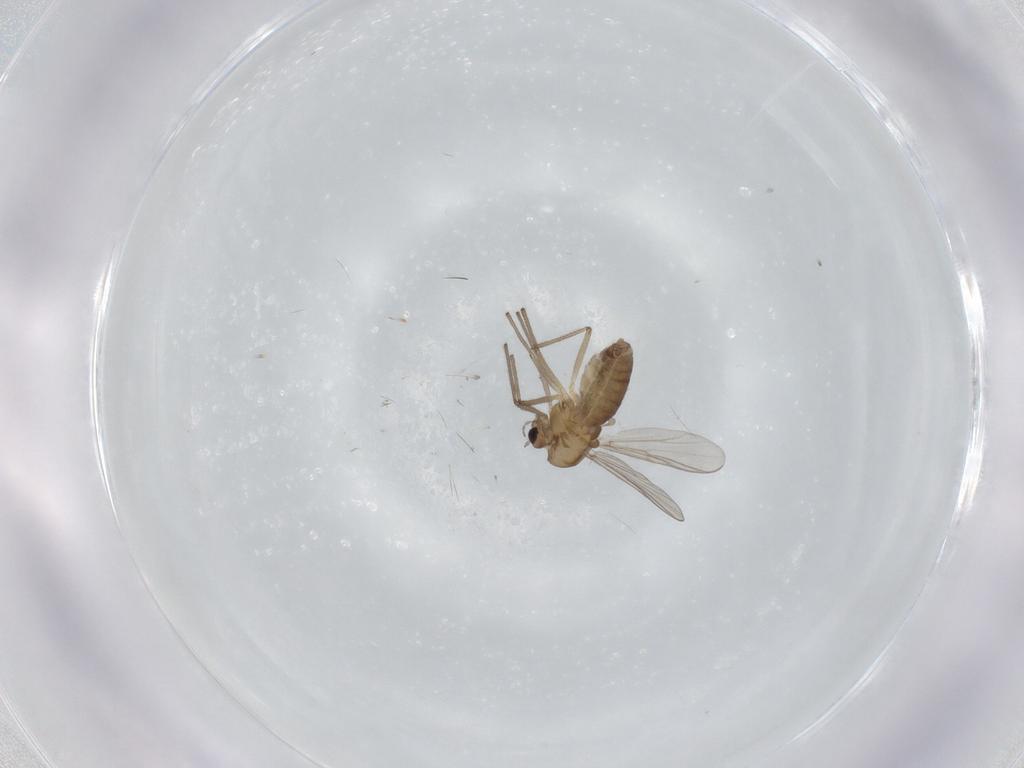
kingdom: Animalia
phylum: Arthropoda
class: Insecta
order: Diptera
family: Chironomidae
